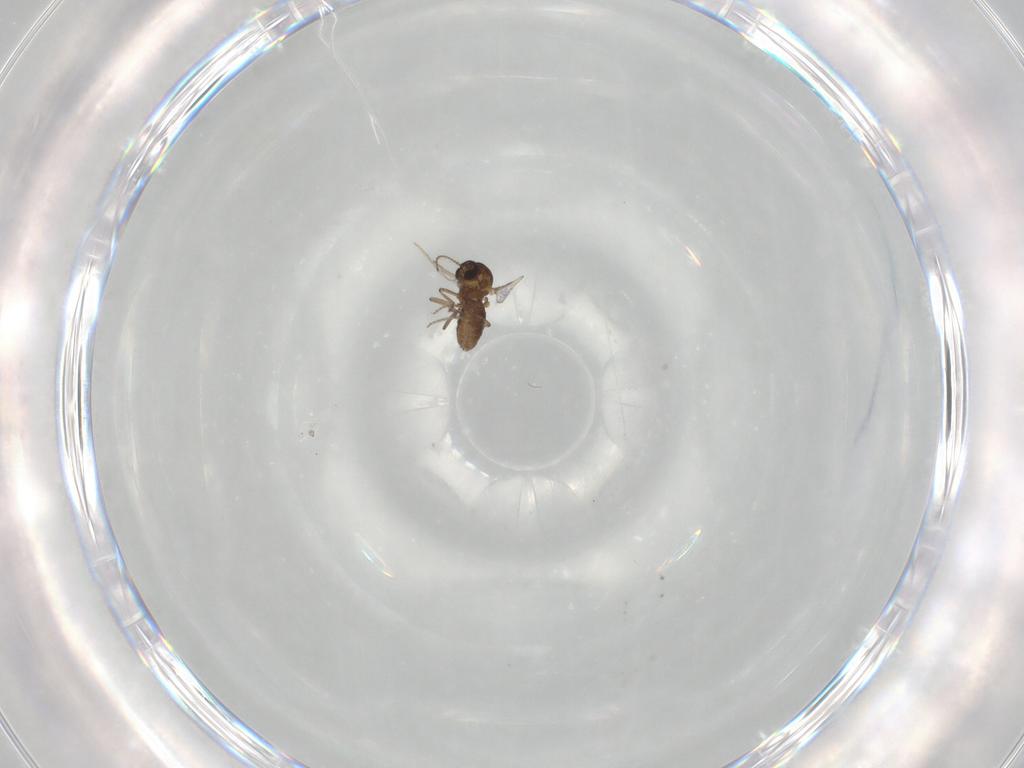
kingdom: Animalia
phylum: Arthropoda
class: Insecta
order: Diptera
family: Ceratopogonidae
